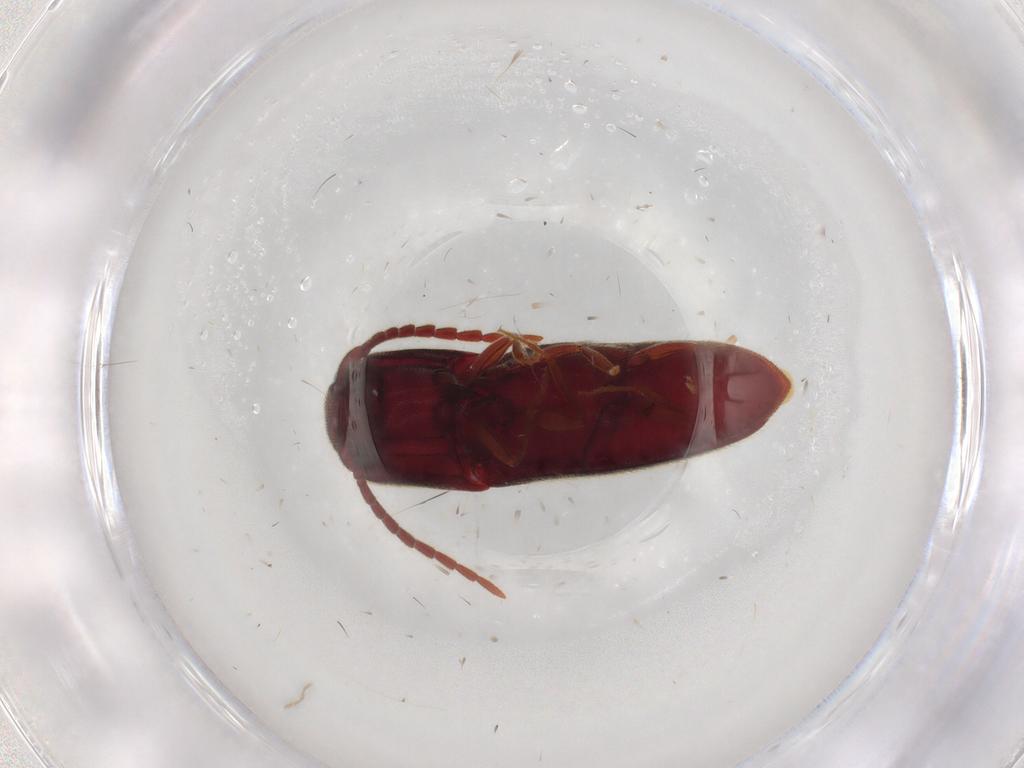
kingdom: Animalia
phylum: Arthropoda
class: Insecta
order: Coleoptera
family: Eucnemidae
